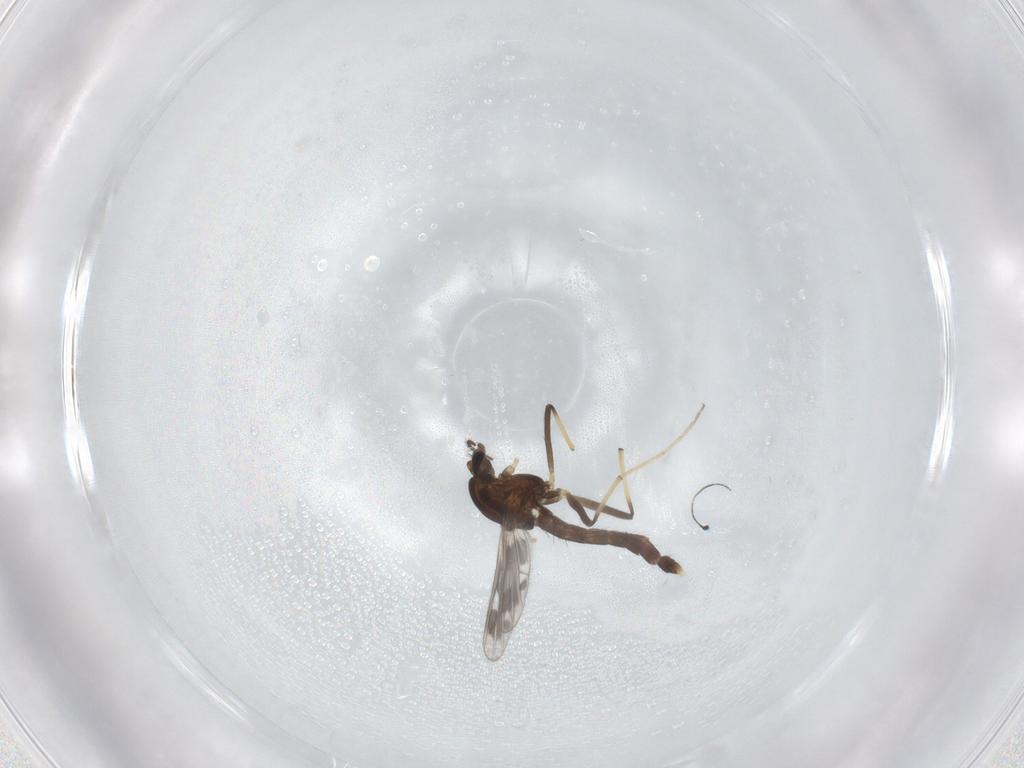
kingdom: Animalia
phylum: Arthropoda
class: Insecta
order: Diptera
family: Chironomidae
